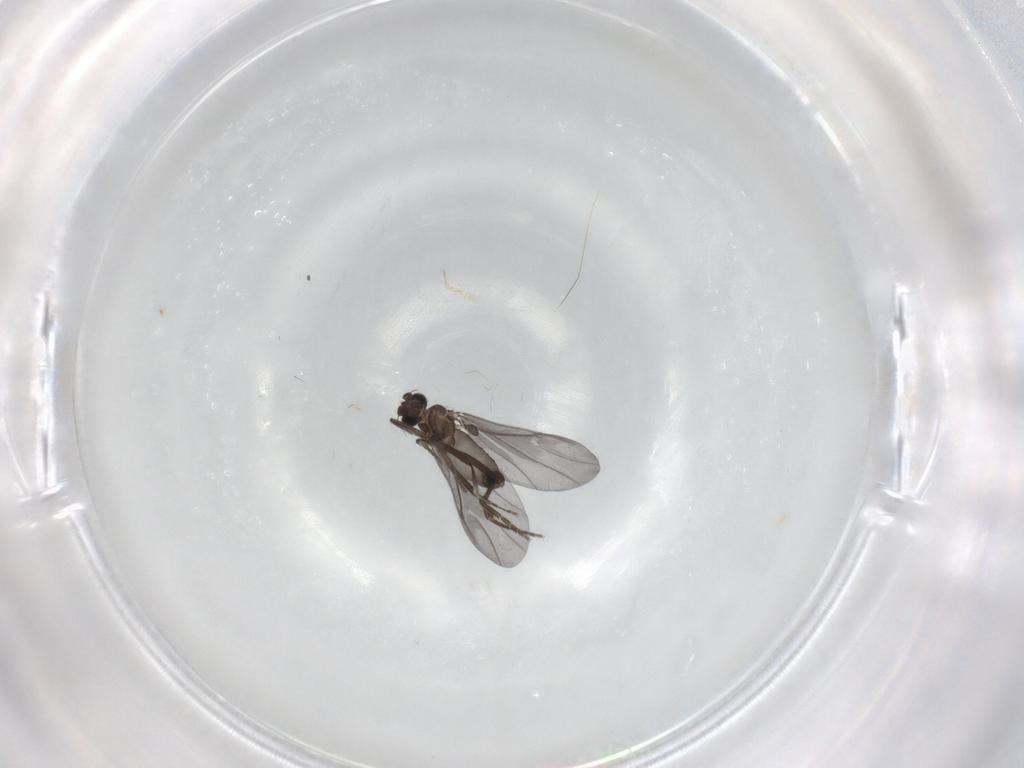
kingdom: Animalia
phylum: Arthropoda
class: Insecta
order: Diptera
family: Phoridae
